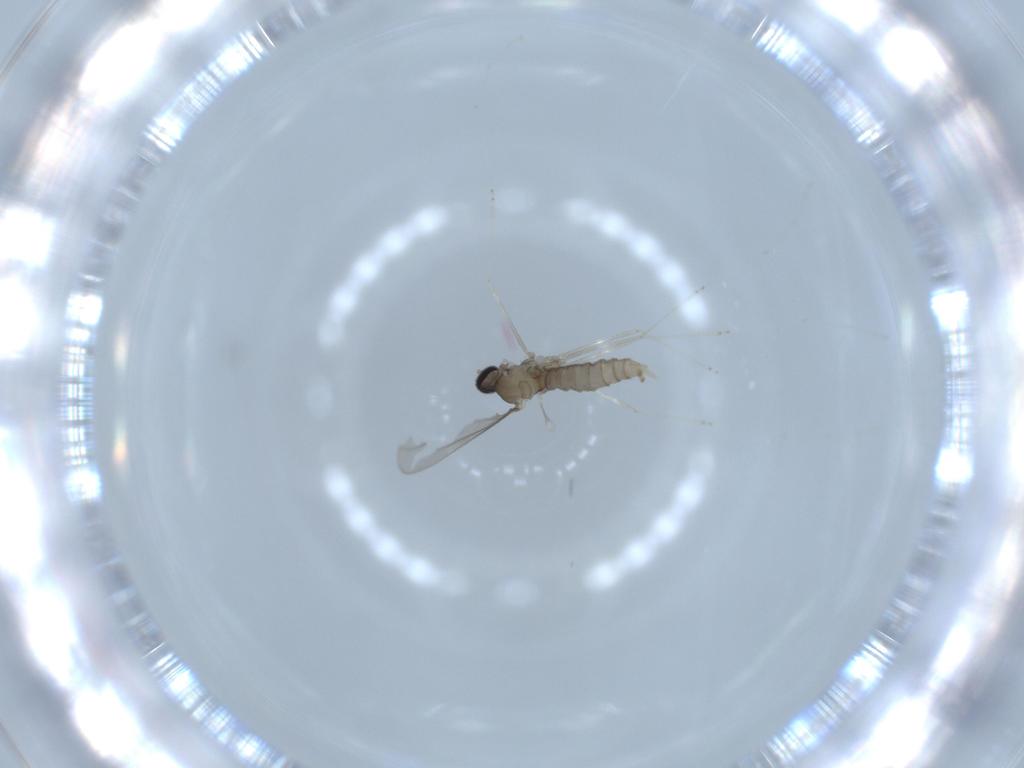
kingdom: Animalia
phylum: Arthropoda
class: Insecta
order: Diptera
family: Cecidomyiidae
